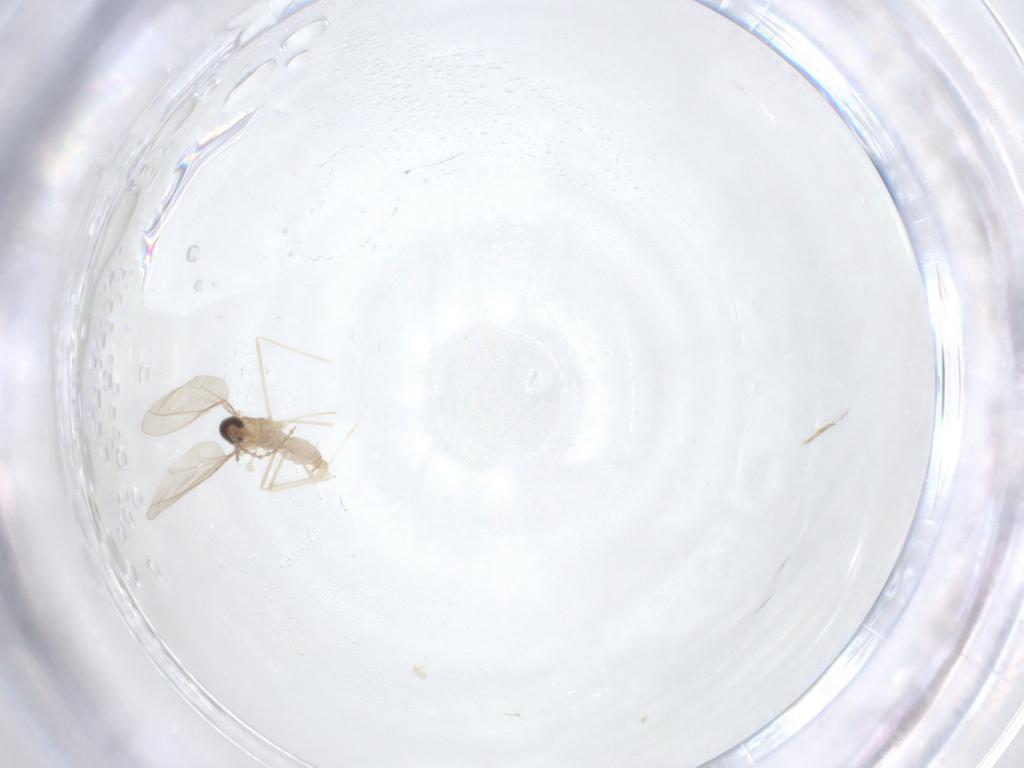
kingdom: Animalia
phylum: Arthropoda
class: Insecta
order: Diptera
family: Cecidomyiidae
